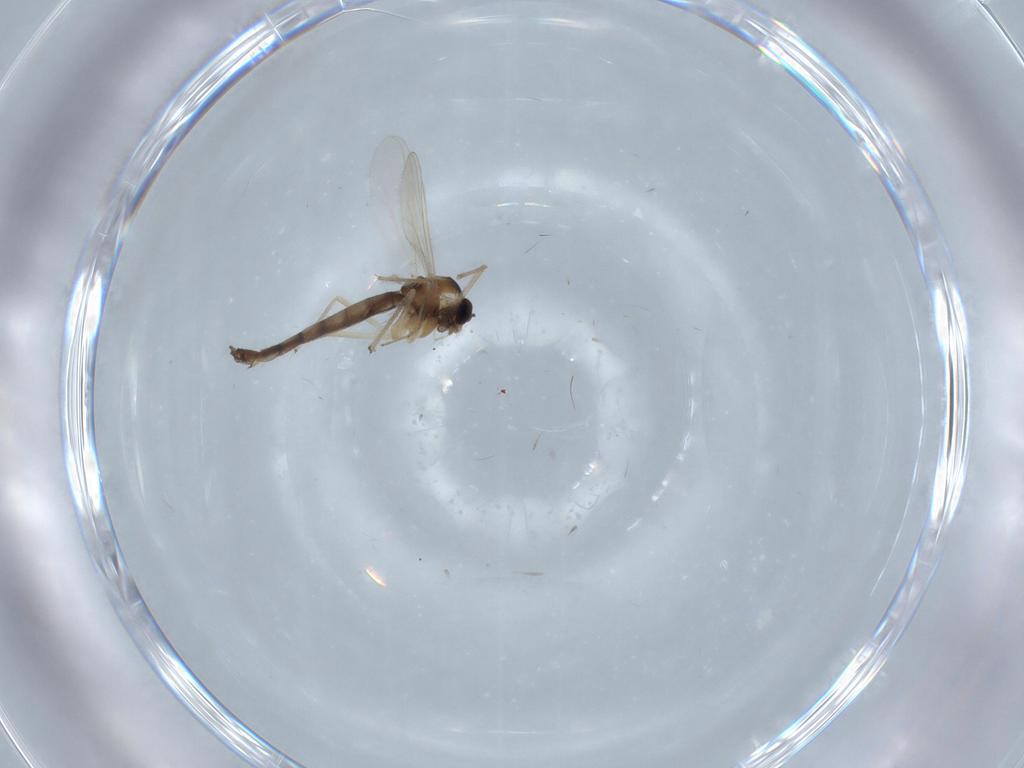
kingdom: Animalia
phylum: Arthropoda
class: Insecta
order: Diptera
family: Chironomidae
